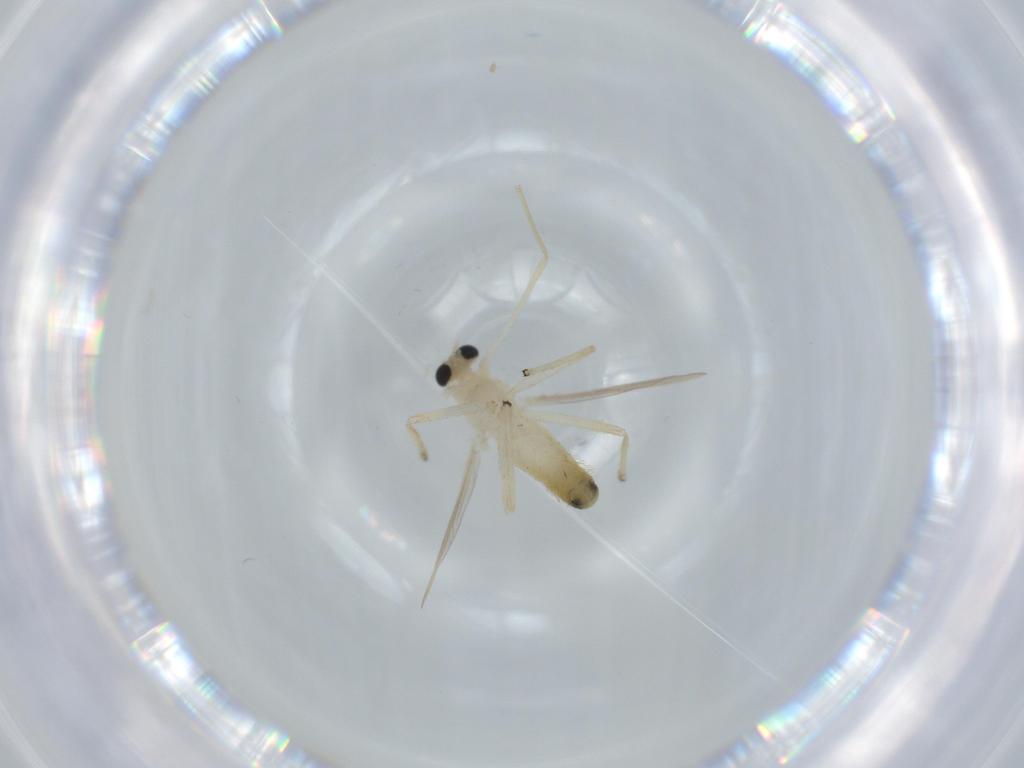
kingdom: Animalia
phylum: Arthropoda
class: Insecta
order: Diptera
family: Chironomidae
